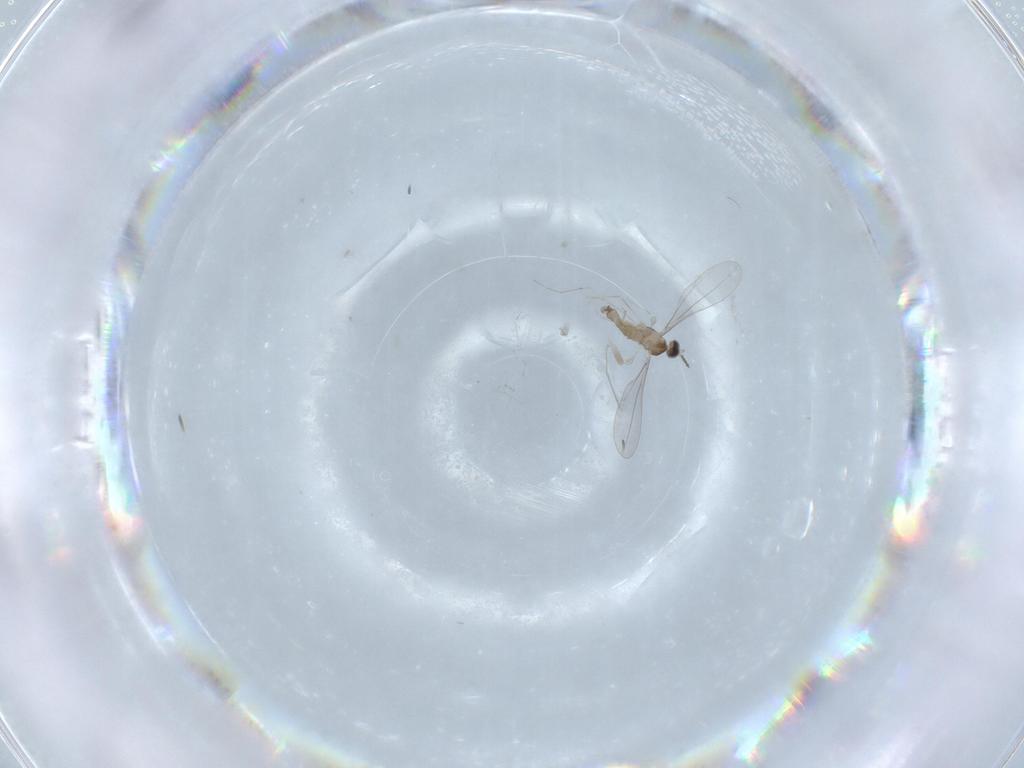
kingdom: Animalia
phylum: Arthropoda
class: Insecta
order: Diptera
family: Cecidomyiidae
